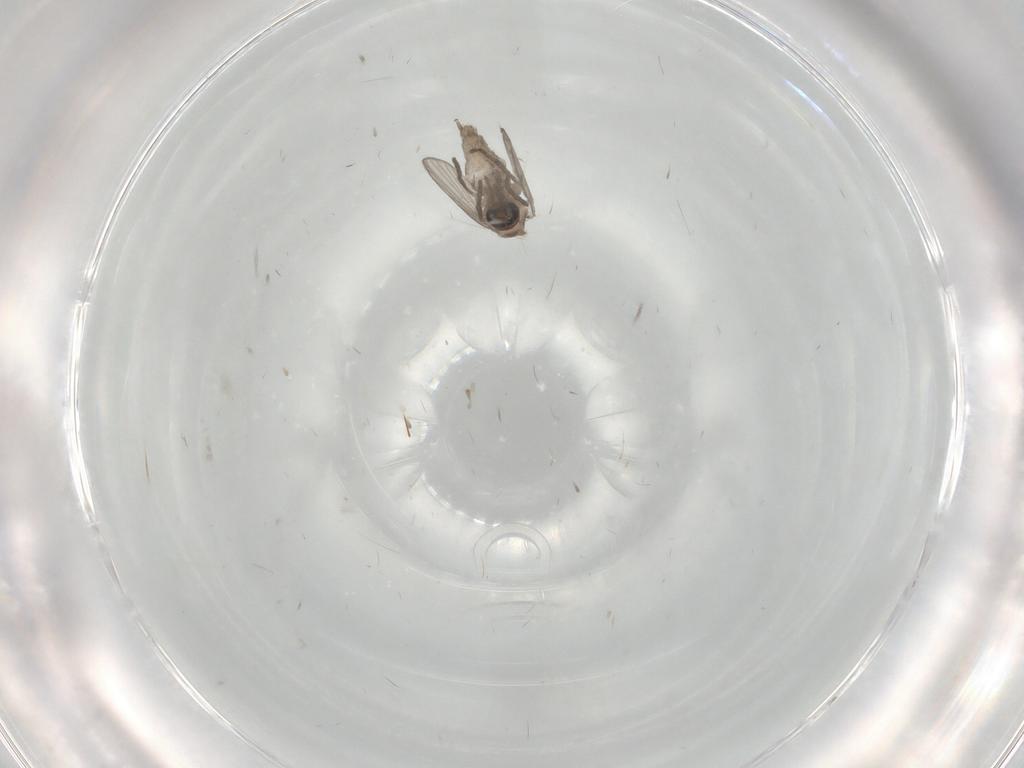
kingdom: Animalia
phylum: Arthropoda
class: Insecta
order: Diptera
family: Psychodidae
